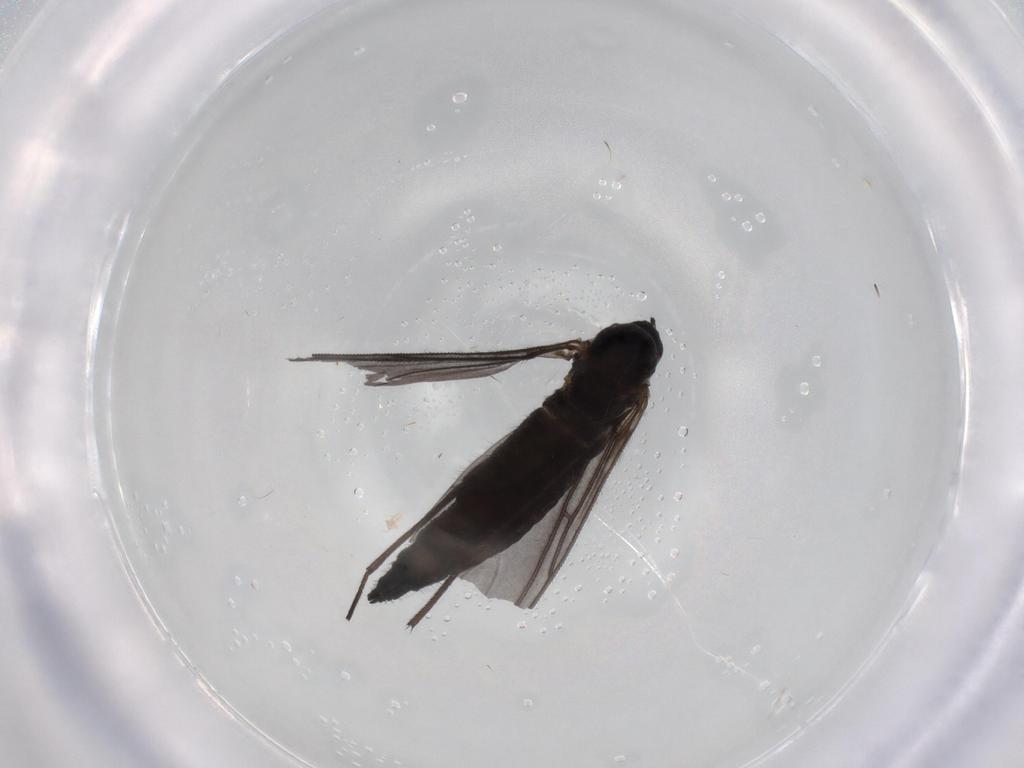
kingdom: Animalia
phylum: Arthropoda
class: Insecta
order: Diptera
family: Sciaridae
